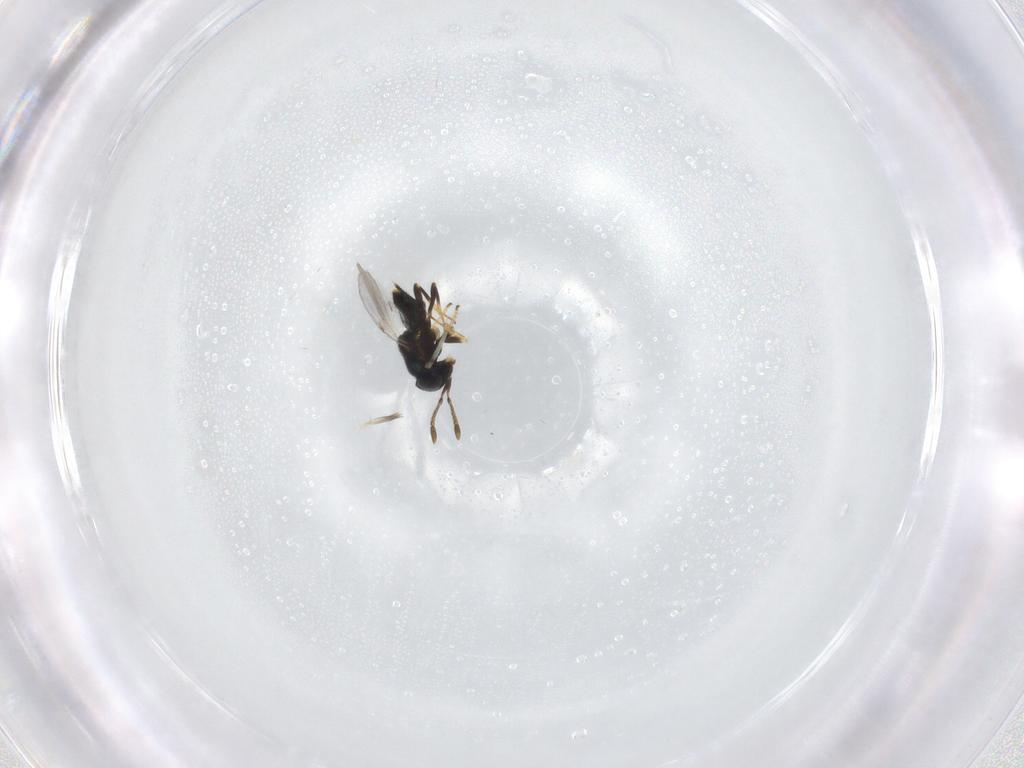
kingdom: Animalia
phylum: Arthropoda
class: Insecta
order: Hymenoptera
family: Encyrtidae
